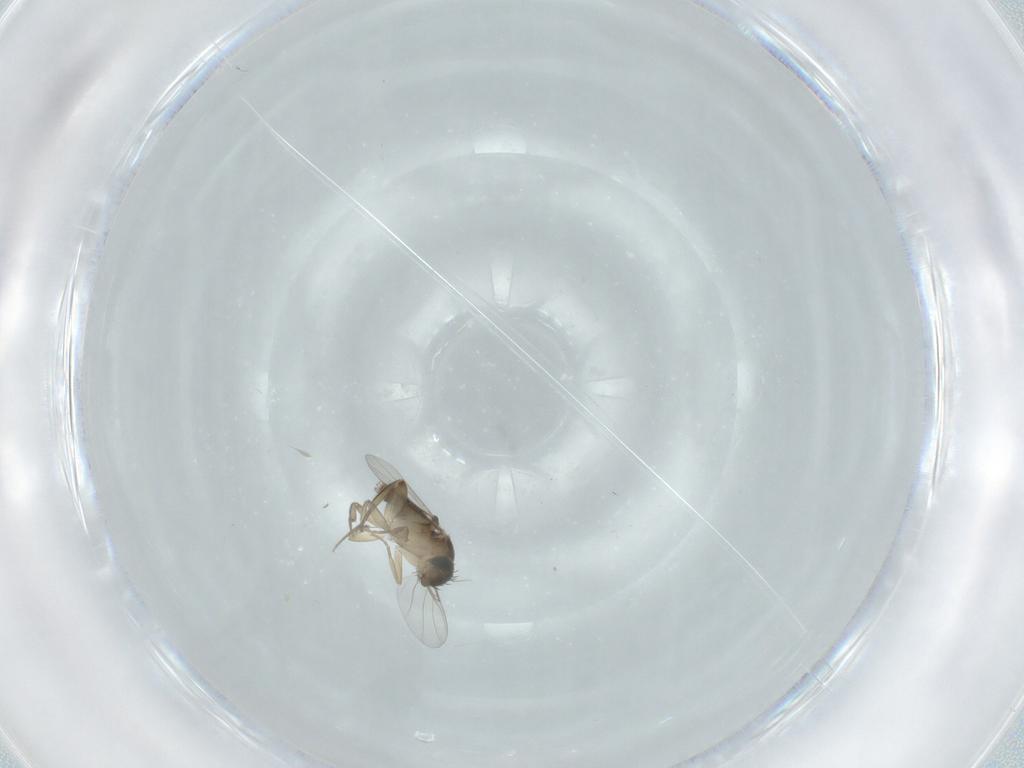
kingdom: Animalia
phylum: Arthropoda
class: Insecta
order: Diptera
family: Phoridae
